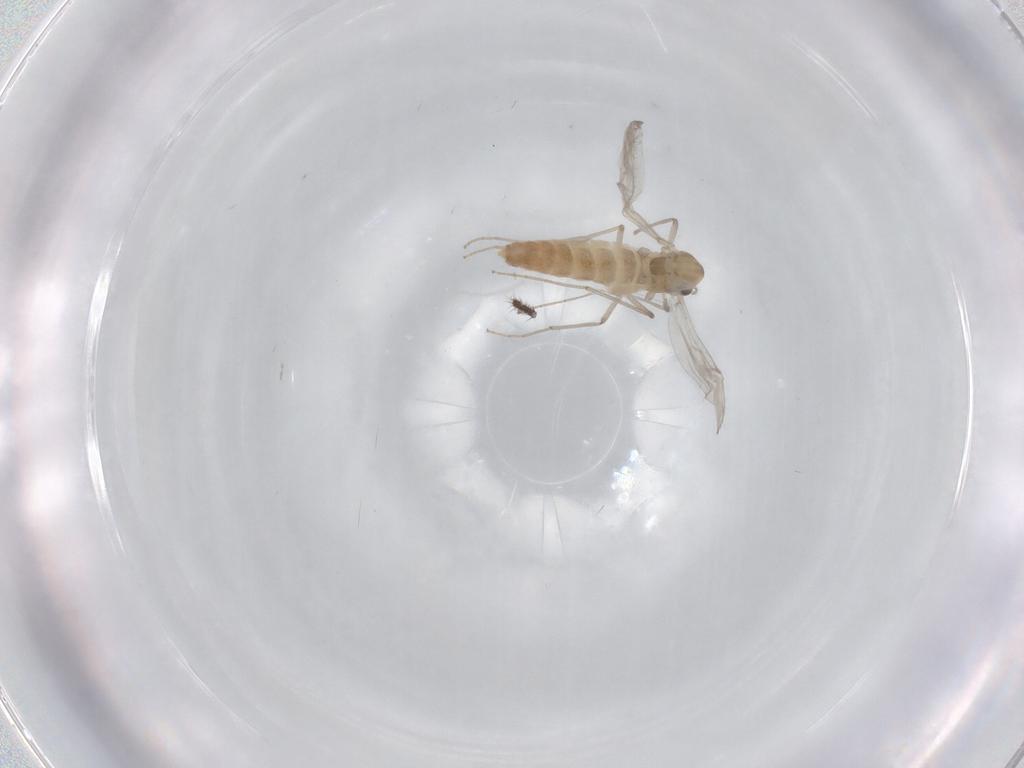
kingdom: Animalia
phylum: Arthropoda
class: Insecta
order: Diptera
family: Chironomidae
